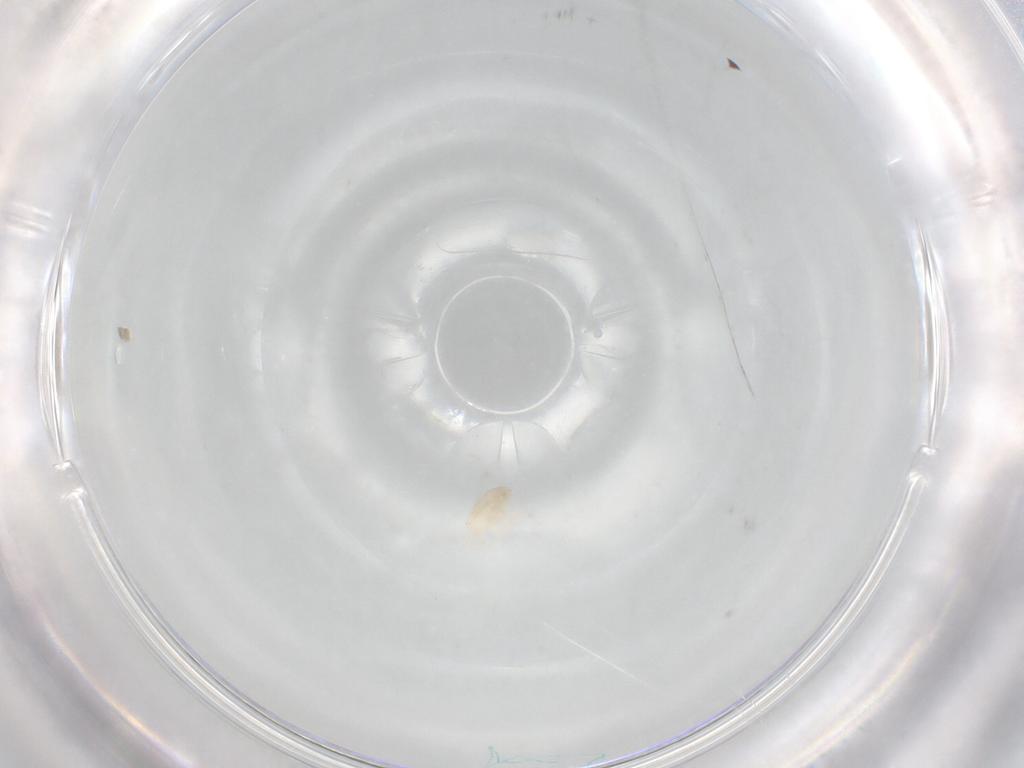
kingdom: Animalia
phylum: Arthropoda
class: Arachnida
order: Mesostigmata
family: Halolaelapidae
